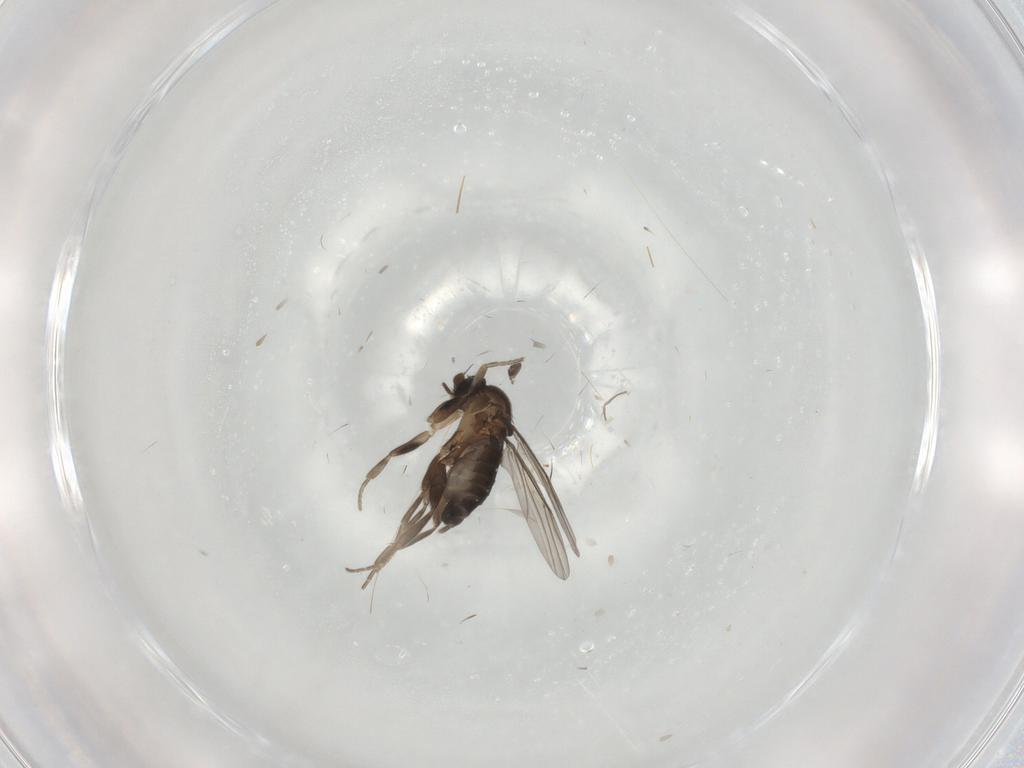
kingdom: Animalia
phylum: Arthropoda
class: Insecta
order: Diptera
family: Phoridae
